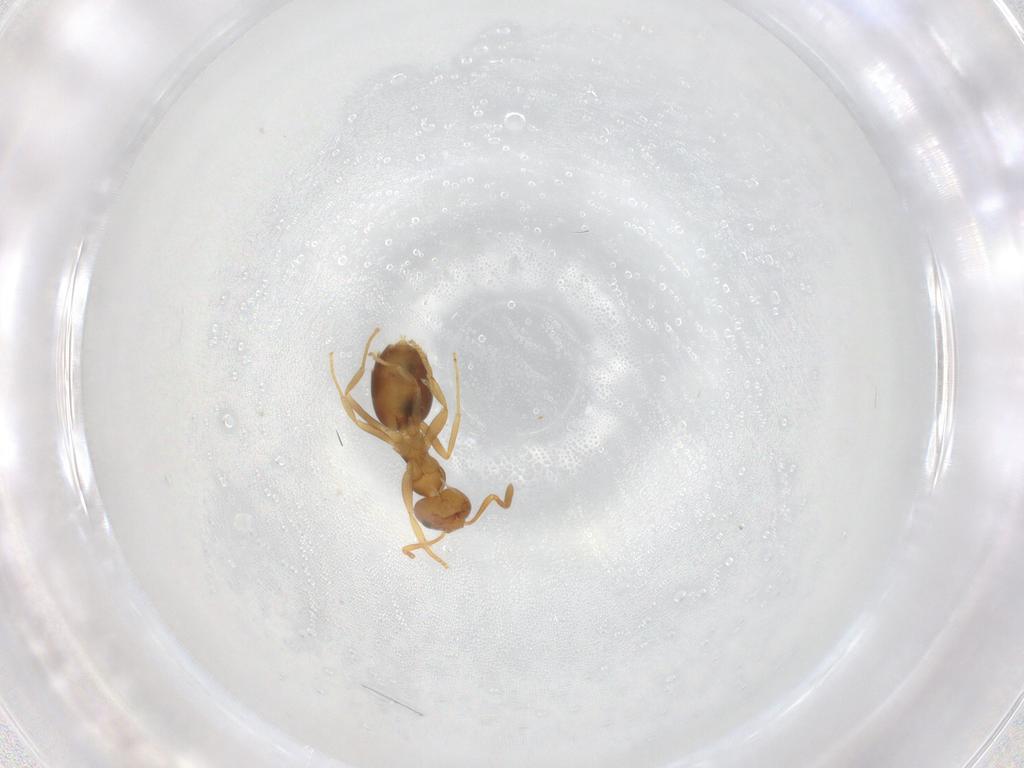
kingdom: Animalia
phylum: Arthropoda
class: Insecta
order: Hymenoptera
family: Formicidae
